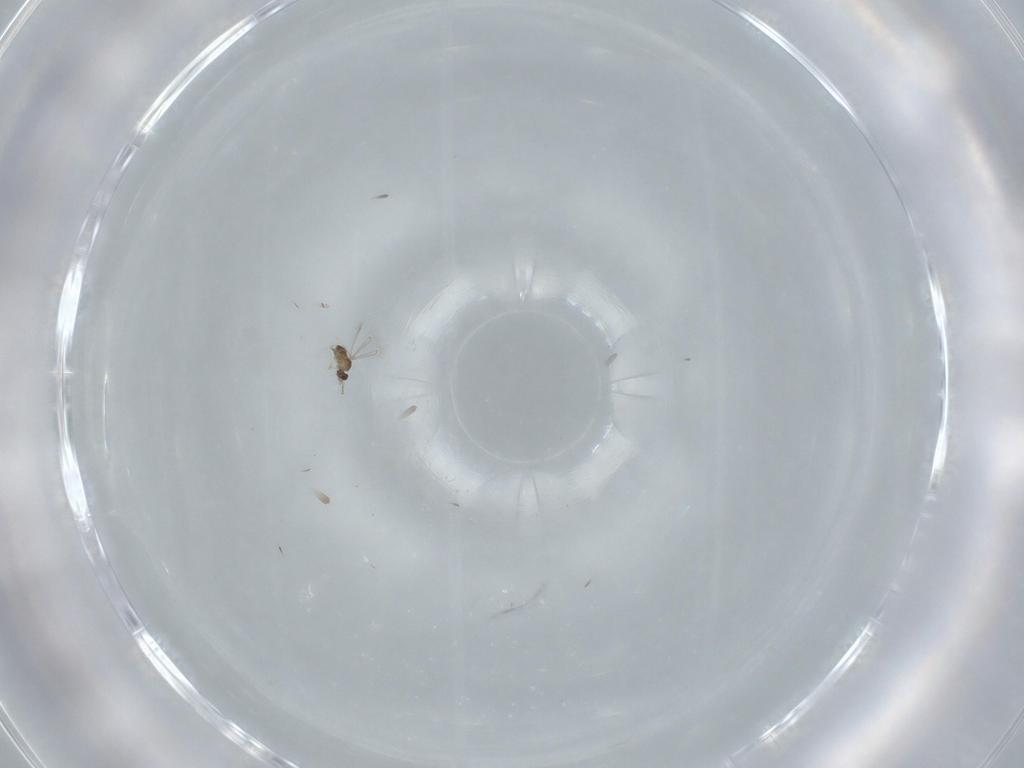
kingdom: Animalia
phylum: Arthropoda
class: Insecta
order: Hymenoptera
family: Mymaridae
